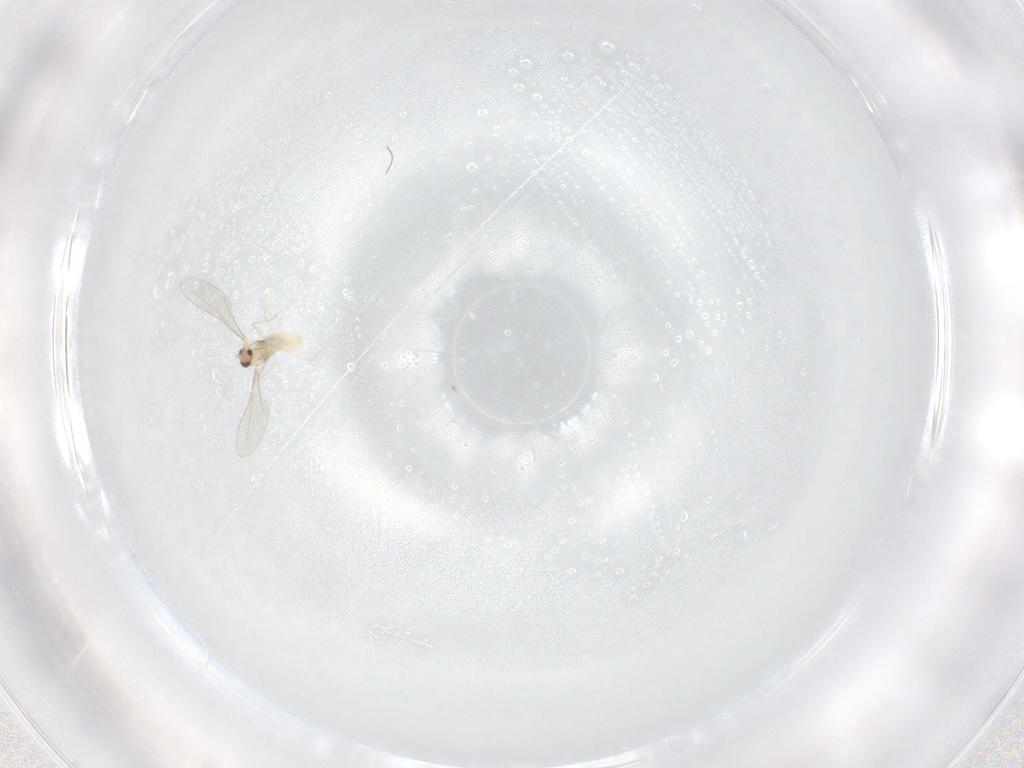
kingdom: Animalia
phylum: Arthropoda
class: Insecta
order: Diptera
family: Cecidomyiidae
